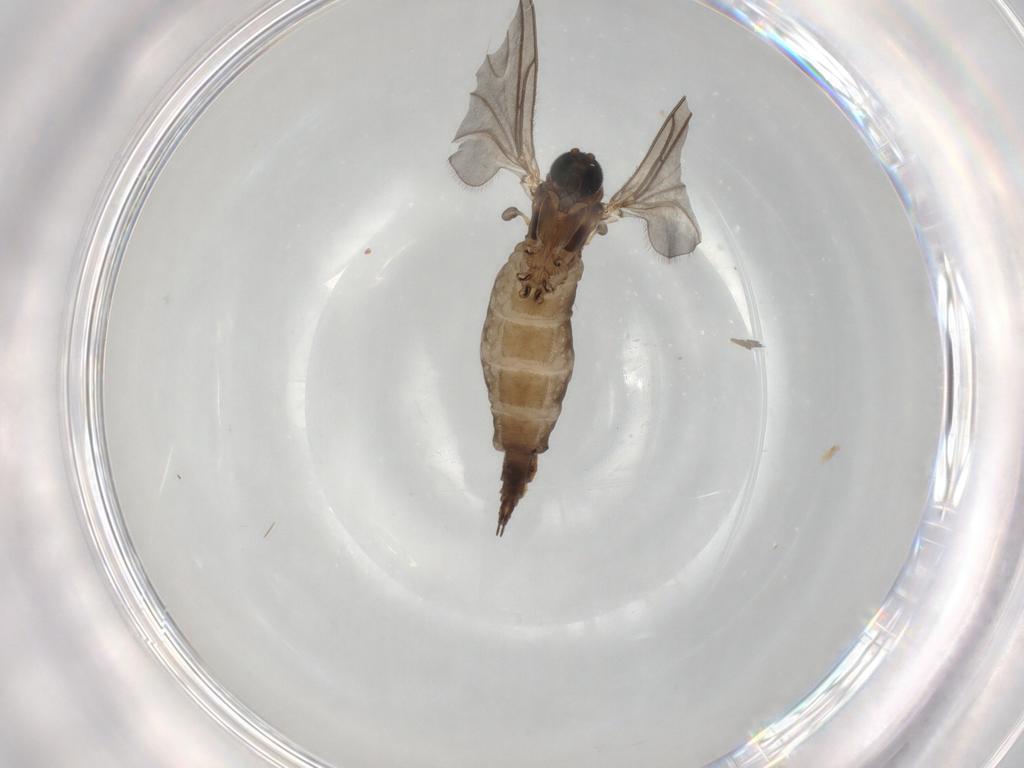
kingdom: Animalia
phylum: Arthropoda
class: Insecta
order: Diptera
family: Sciaridae
